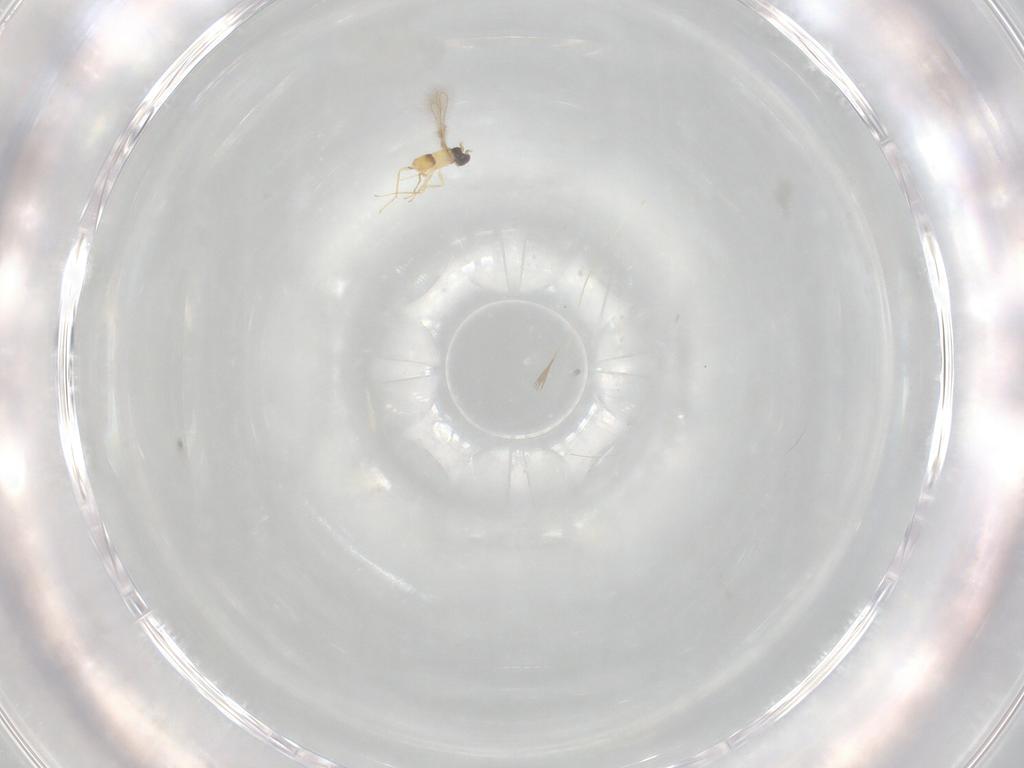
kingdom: Animalia
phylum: Arthropoda
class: Insecta
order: Hymenoptera
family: Mymaridae
